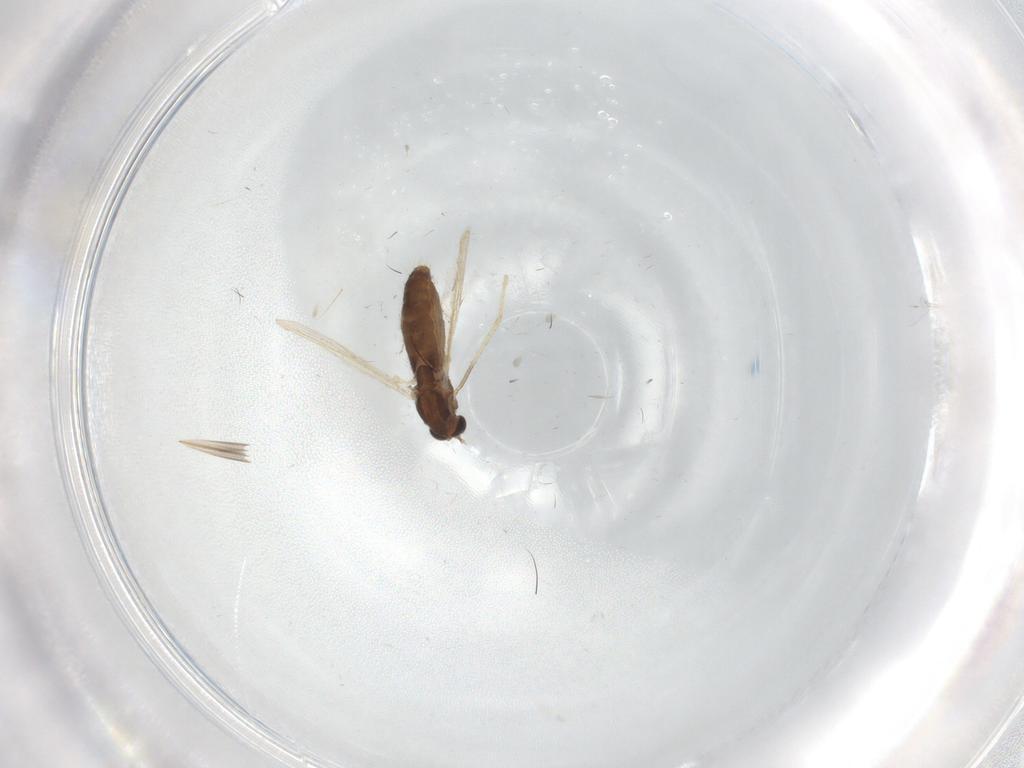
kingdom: Animalia
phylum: Arthropoda
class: Insecta
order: Diptera
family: Chironomidae
